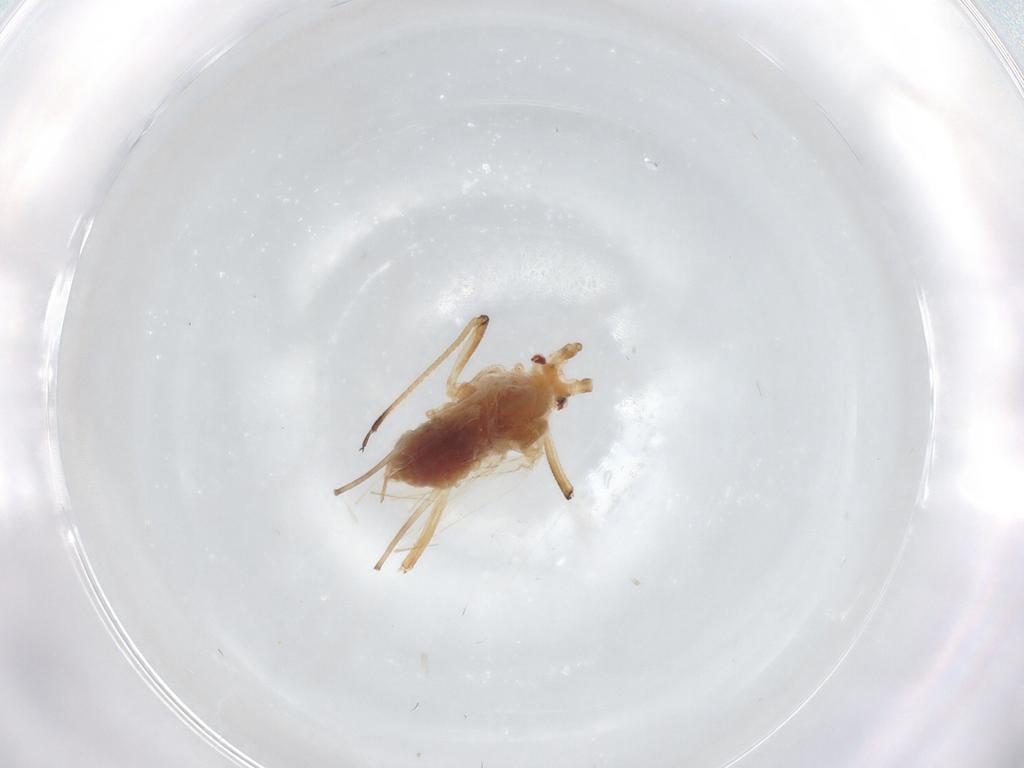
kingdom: Animalia
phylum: Arthropoda
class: Insecta
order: Hemiptera
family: Aphididae
